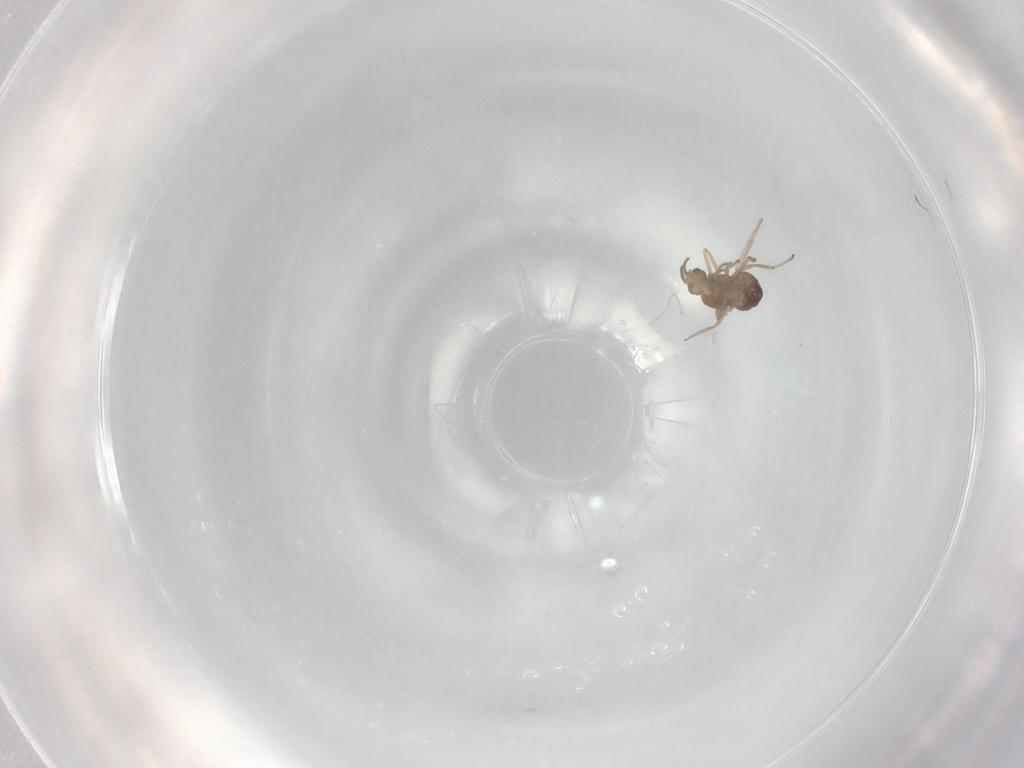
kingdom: Animalia
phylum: Arthropoda
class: Insecta
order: Diptera
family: Ceratopogonidae
